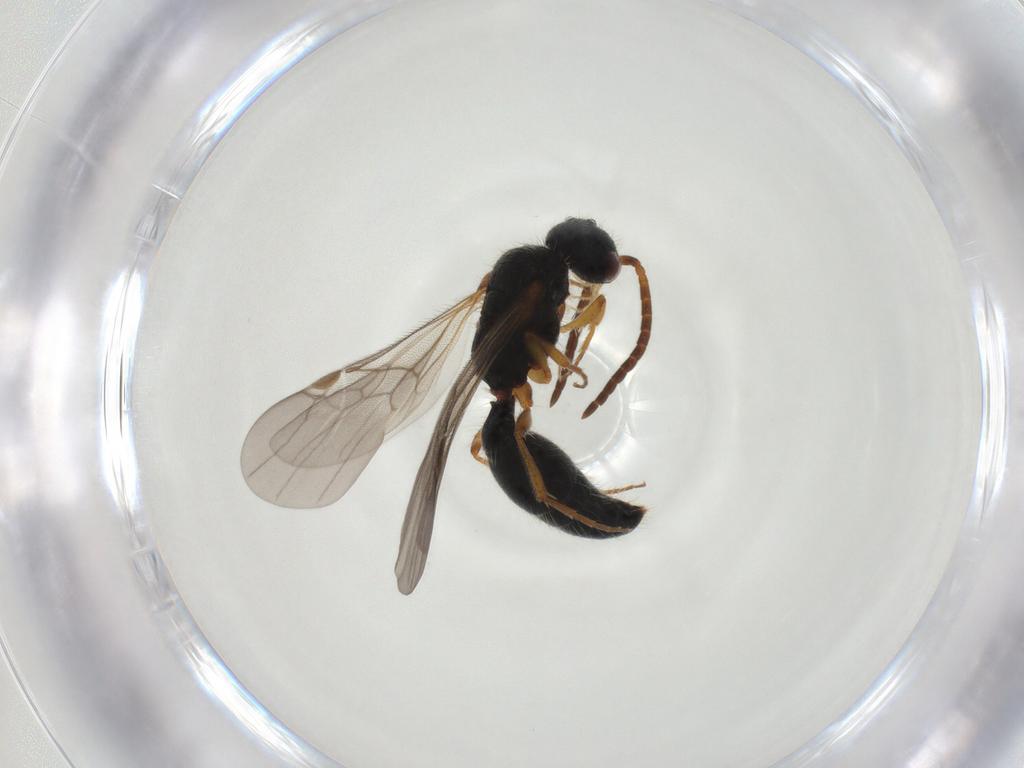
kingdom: Animalia
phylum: Arthropoda
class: Insecta
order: Hymenoptera
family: Mutillidae
